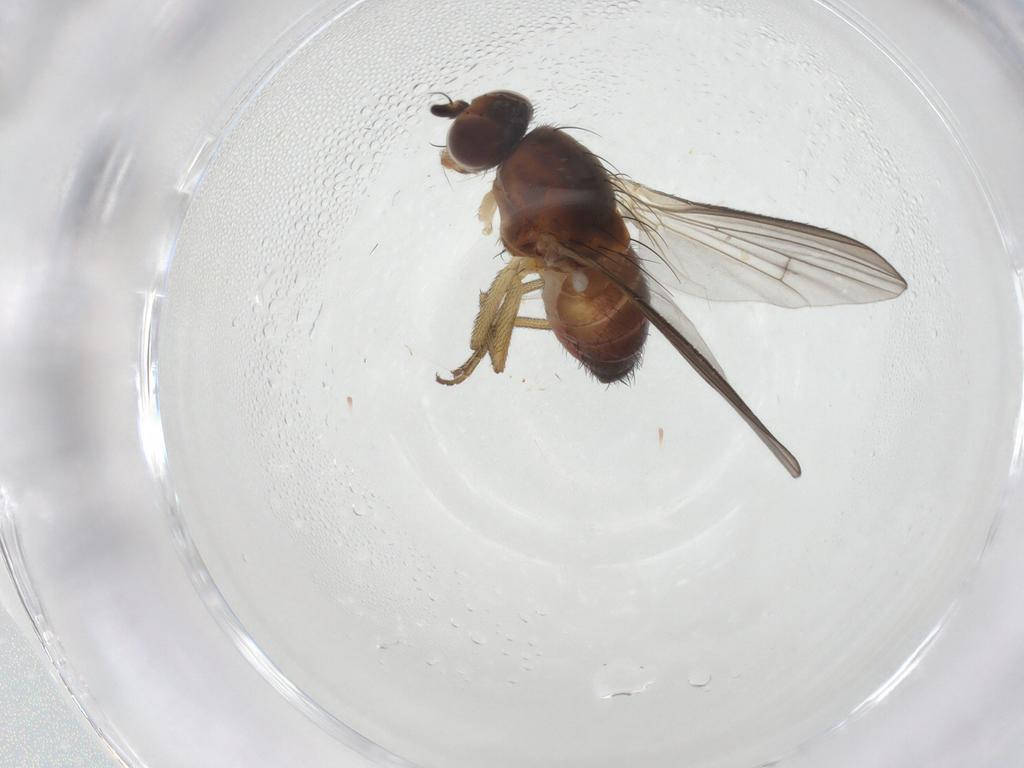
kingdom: Animalia
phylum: Arthropoda
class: Insecta
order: Diptera
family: Heleomyzidae
